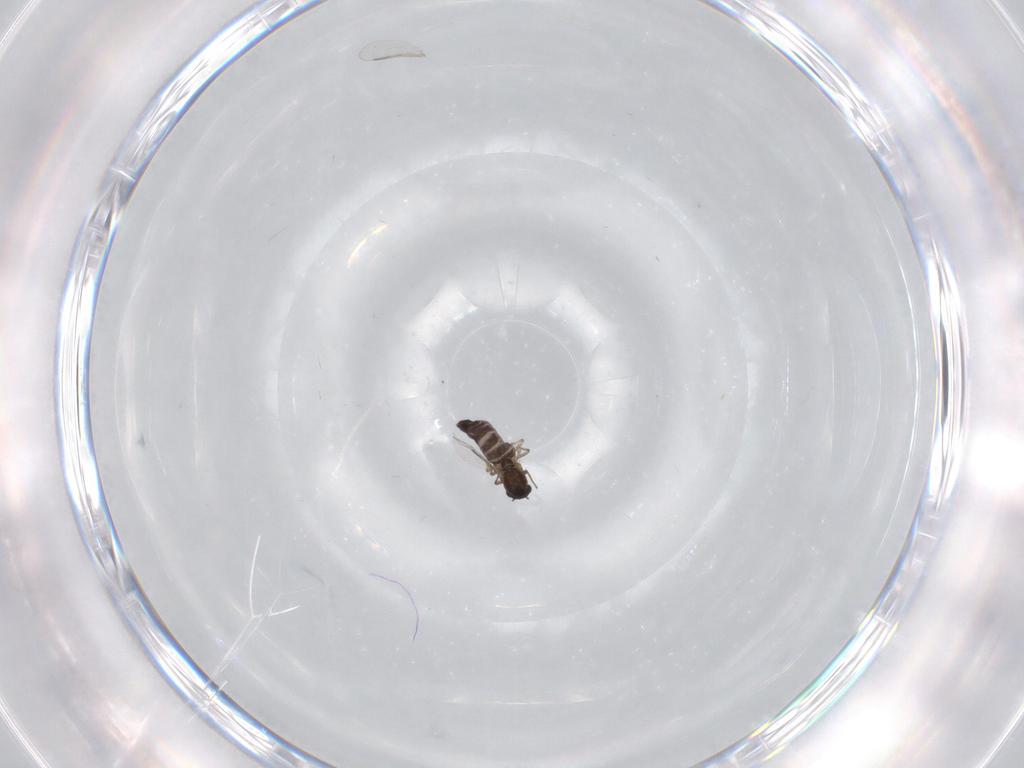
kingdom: Animalia
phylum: Arthropoda
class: Insecta
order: Diptera
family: Chironomidae
